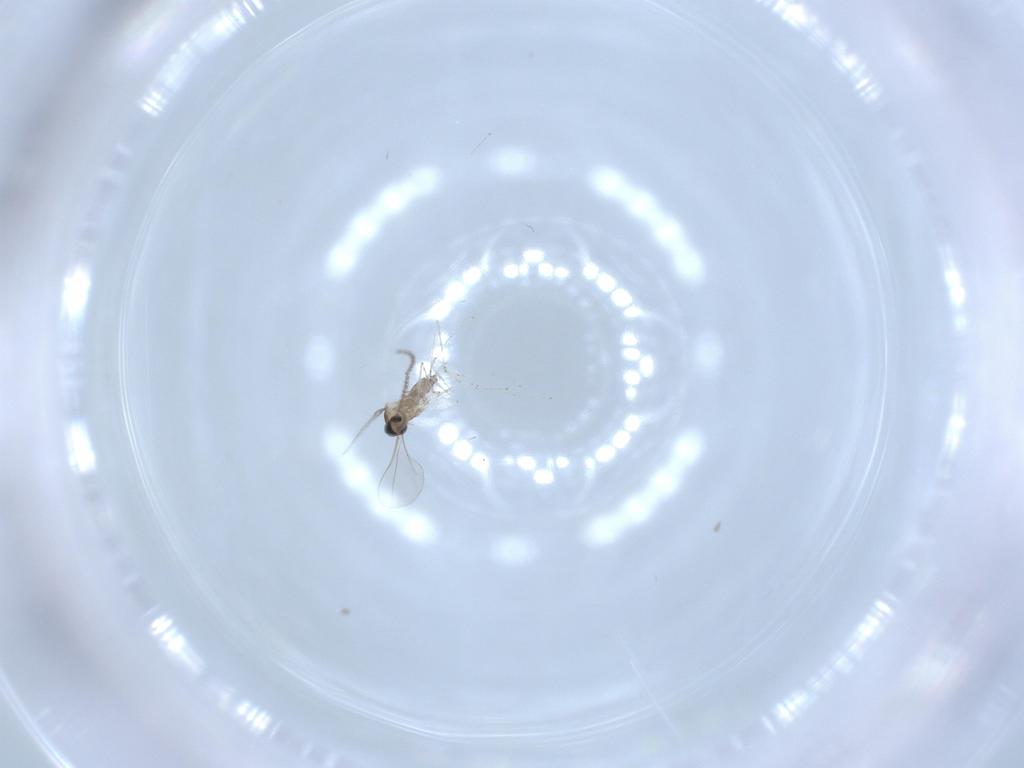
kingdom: Animalia
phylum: Arthropoda
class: Insecta
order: Diptera
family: Cecidomyiidae
